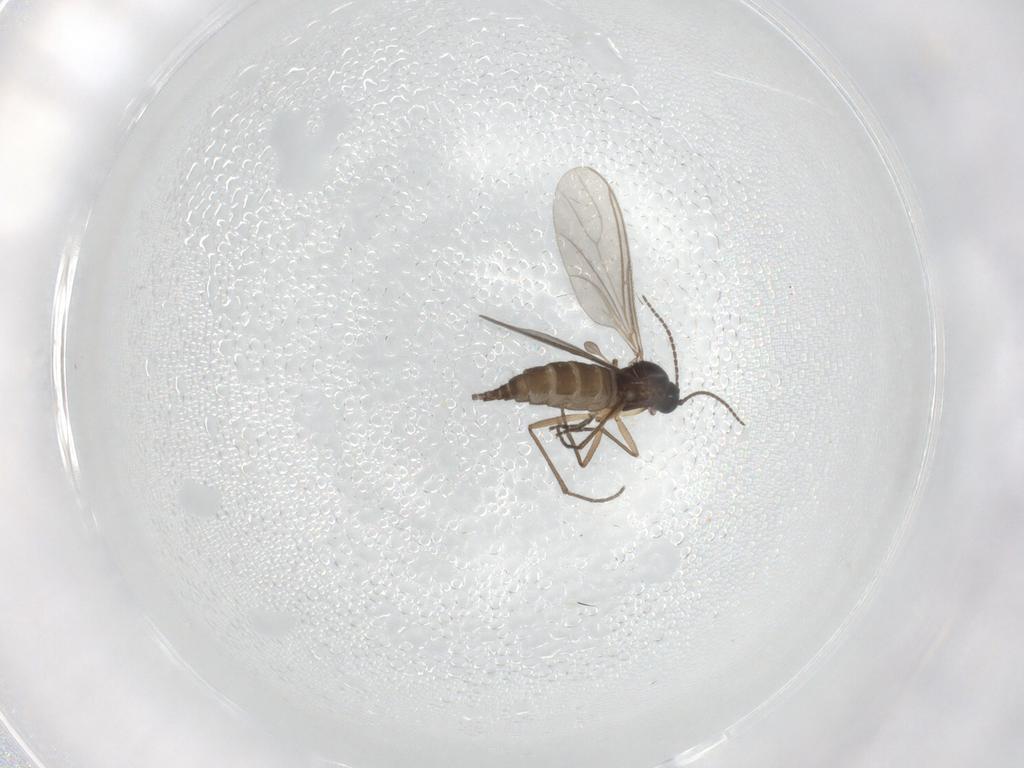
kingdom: Animalia
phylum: Arthropoda
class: Insecta
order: Diptera
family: Sciaridae
